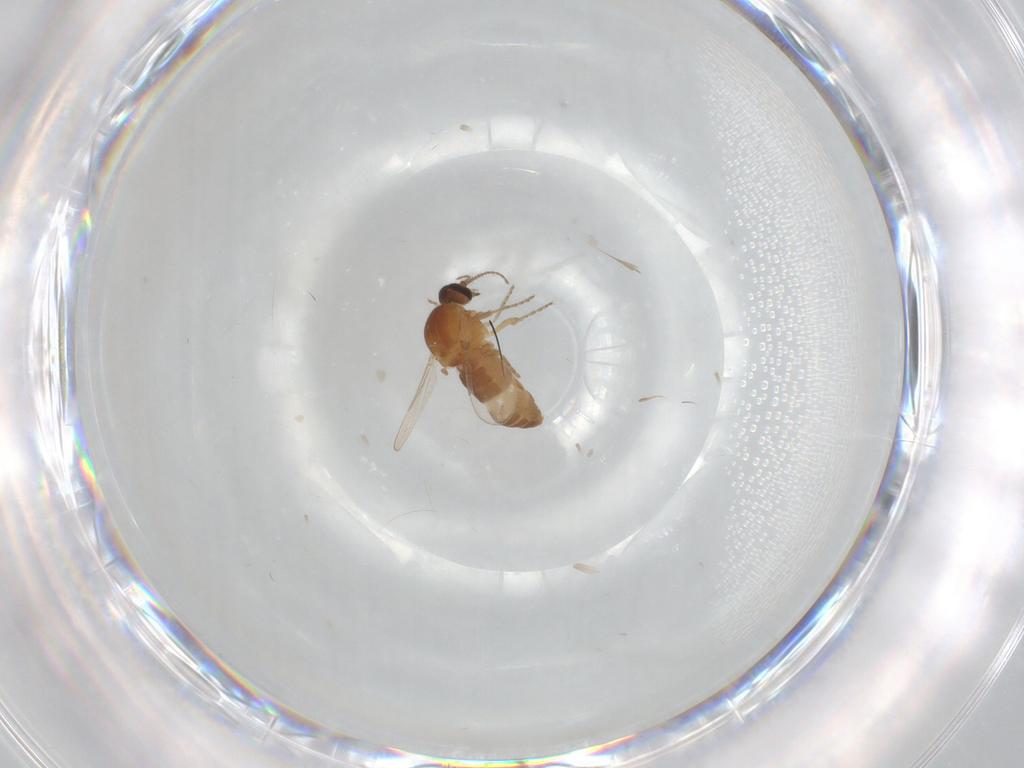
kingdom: Animalia
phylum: Arthropoda
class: Insecta
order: Diptera
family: Ceratopogonidae
